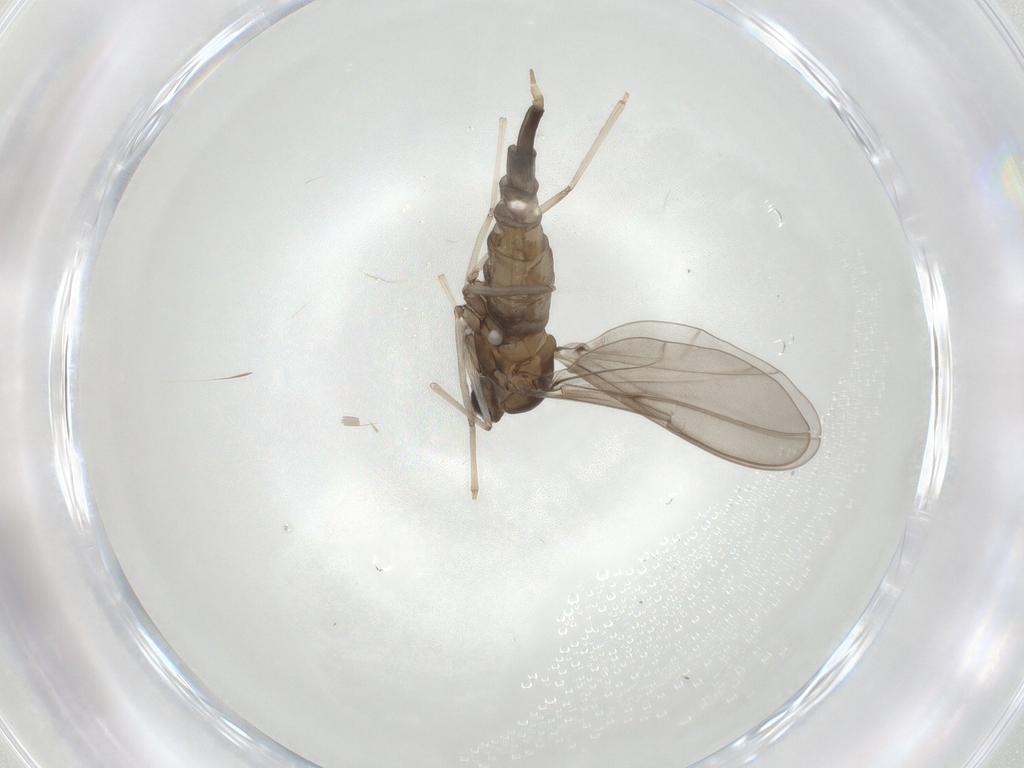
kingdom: Animalia
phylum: Arthropoda
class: Insecta
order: Diptera
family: Cecidomyiidae
